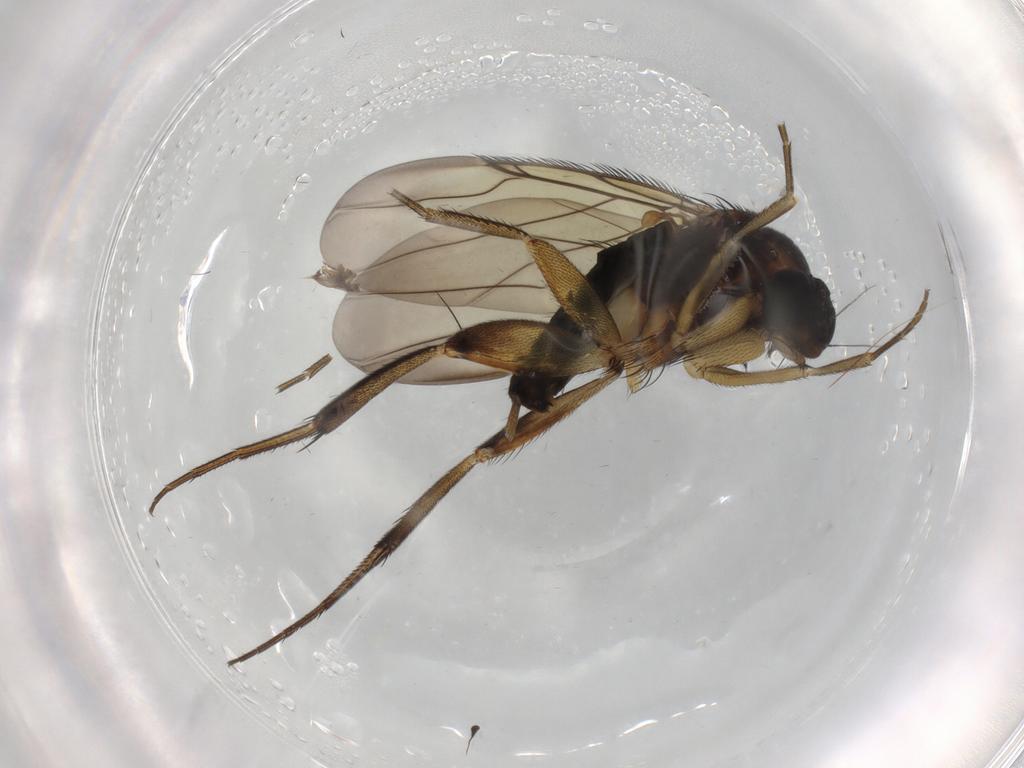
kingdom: Animalia
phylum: Arthropoda
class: Insecta
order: Diptera
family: Phoridae
